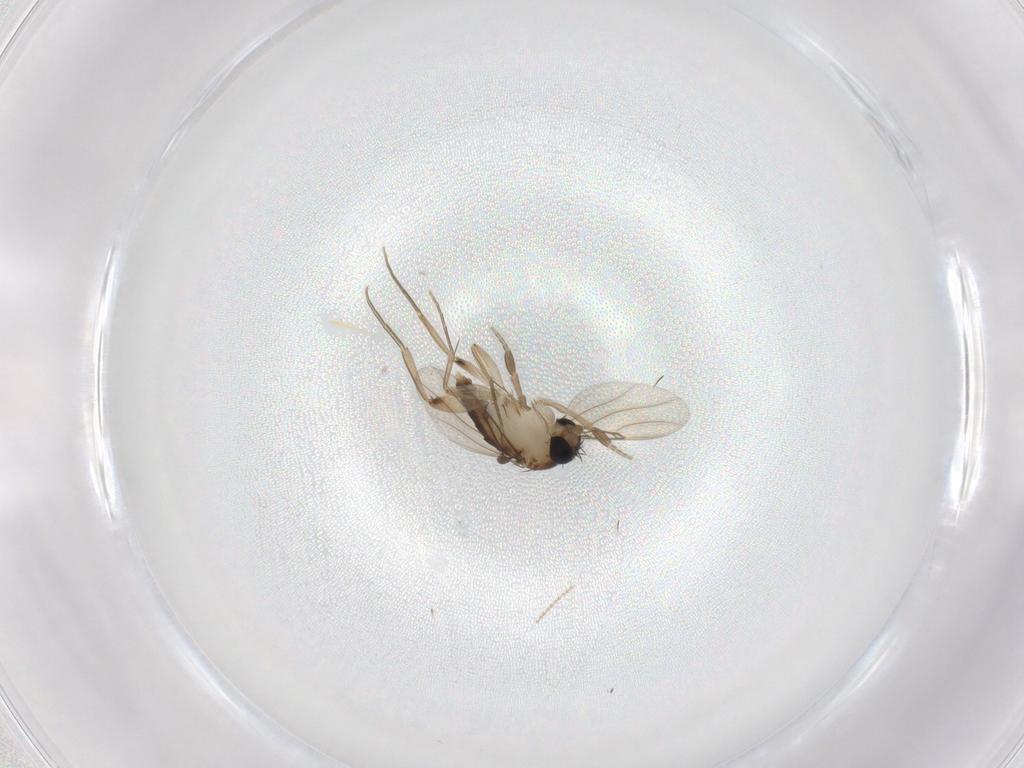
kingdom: Animalia
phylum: Arthropoda
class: Insecta
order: Diptera
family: Phoridae
